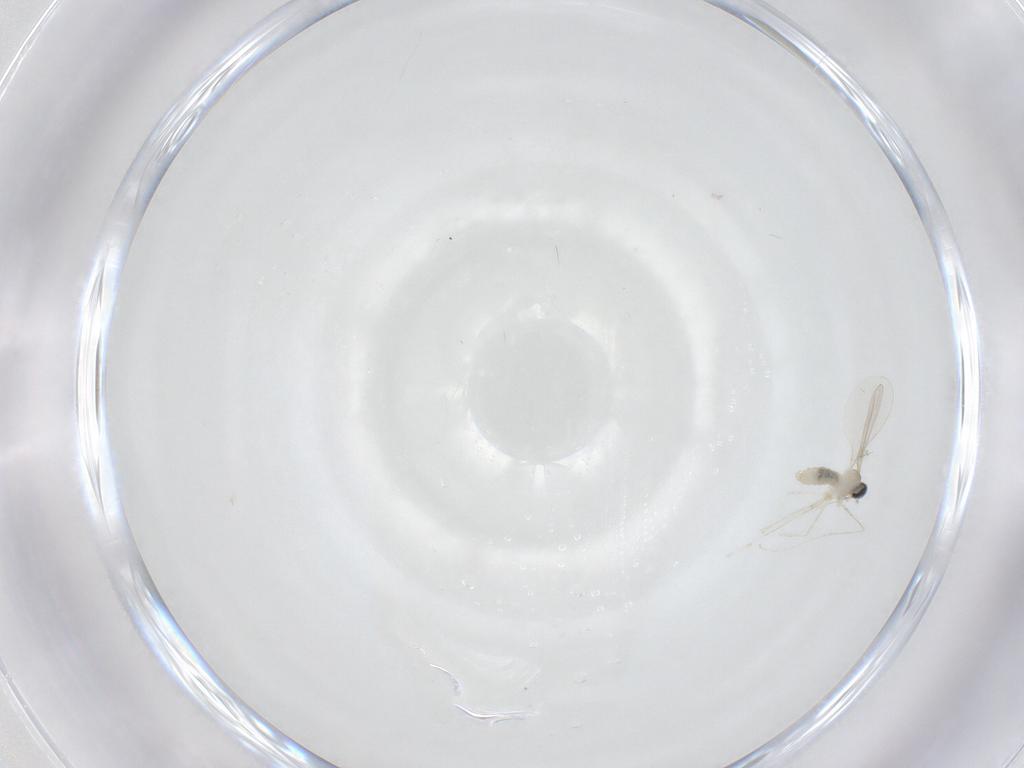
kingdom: Animalia
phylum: Arthropoda
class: Insecta
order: Diptera
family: Cecidomyiidae
